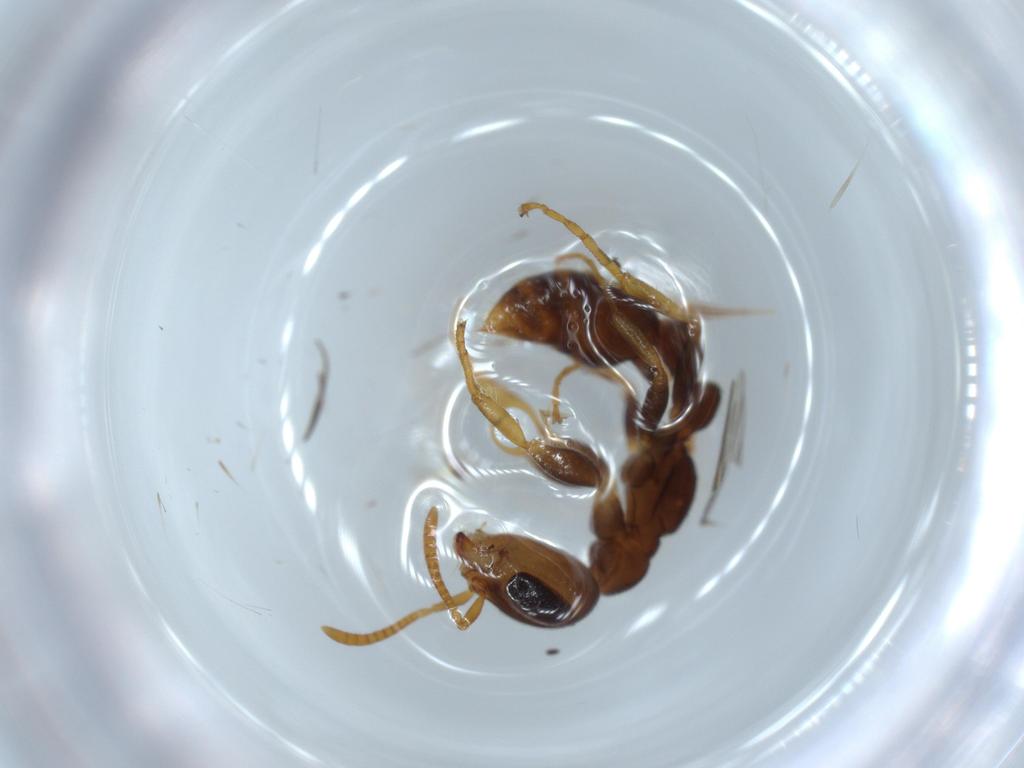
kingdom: Animalia
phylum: Arthropoda
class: Insecta
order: Hymenoptera
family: Formicidae
